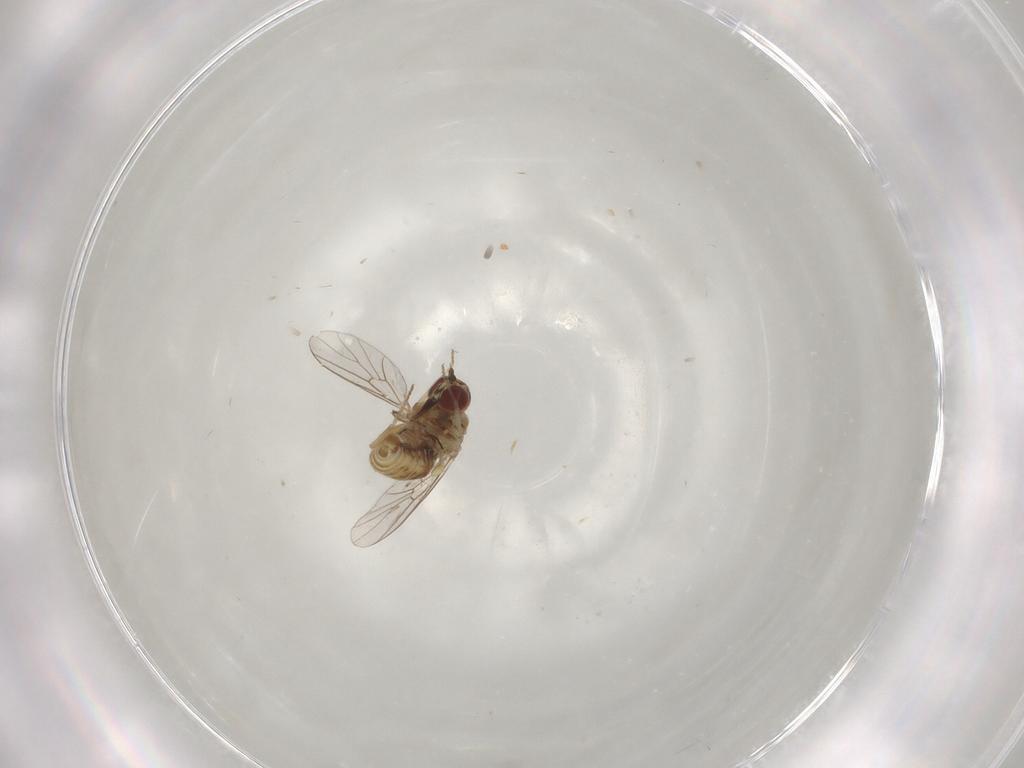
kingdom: Animalia
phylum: Arthropoda
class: Insecta
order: Diptera
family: Mythicomyiidae
